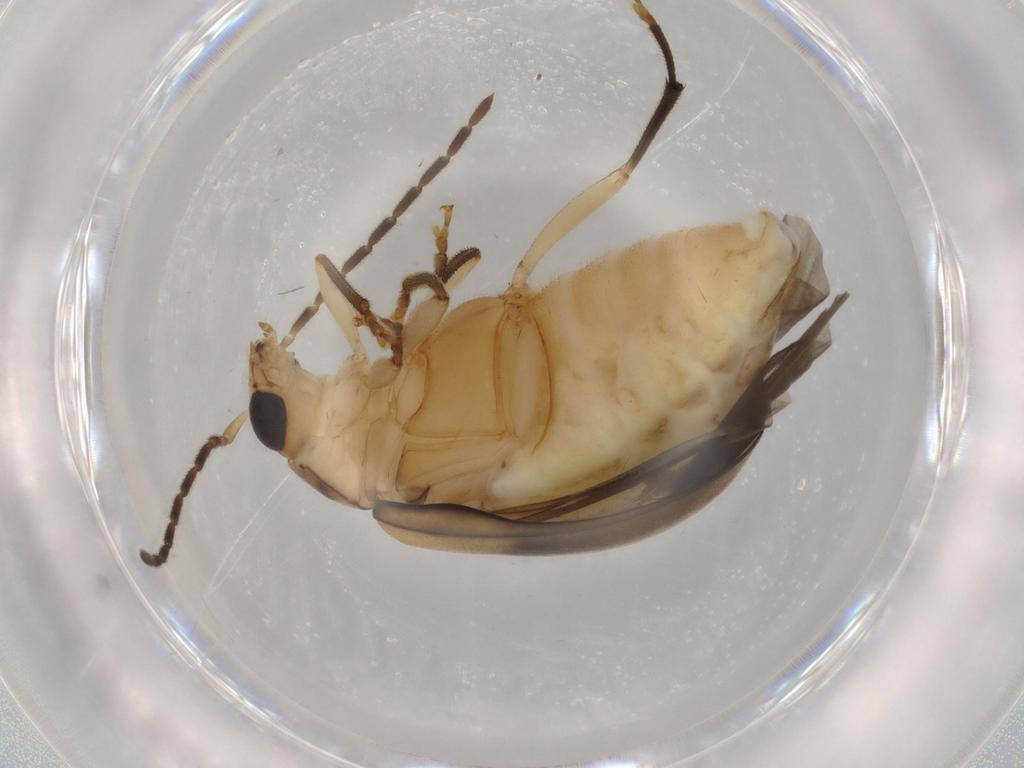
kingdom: Animalia
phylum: Arthropoda
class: Insecta
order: Coleoptera
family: Chrysomelidae
